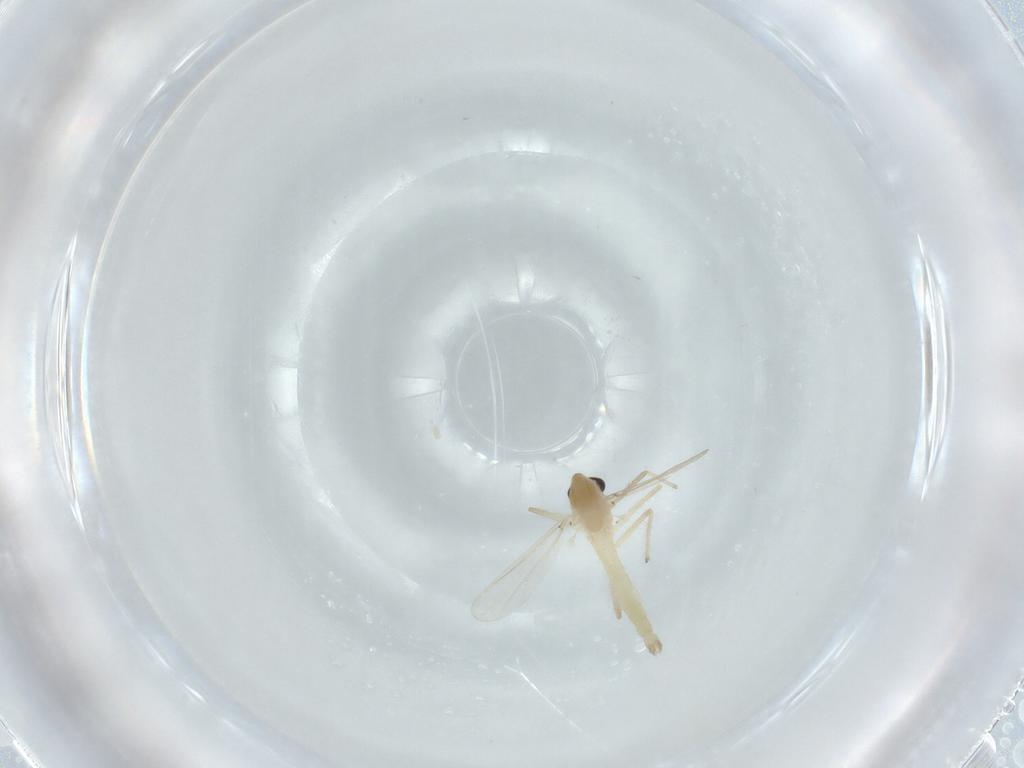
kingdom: Animalia
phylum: Arthropoda
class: Insecta
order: Diptera
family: Chironomidae
